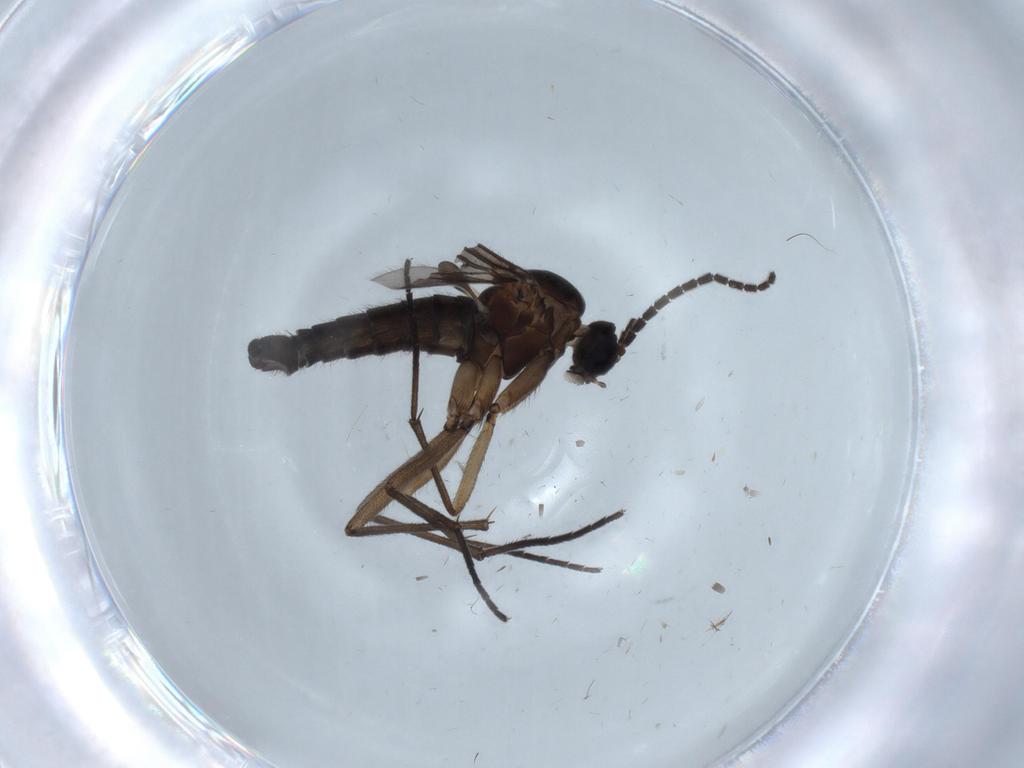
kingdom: Animalia
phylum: Arthropoda
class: Insecta
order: Diptera
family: Sciaridae
